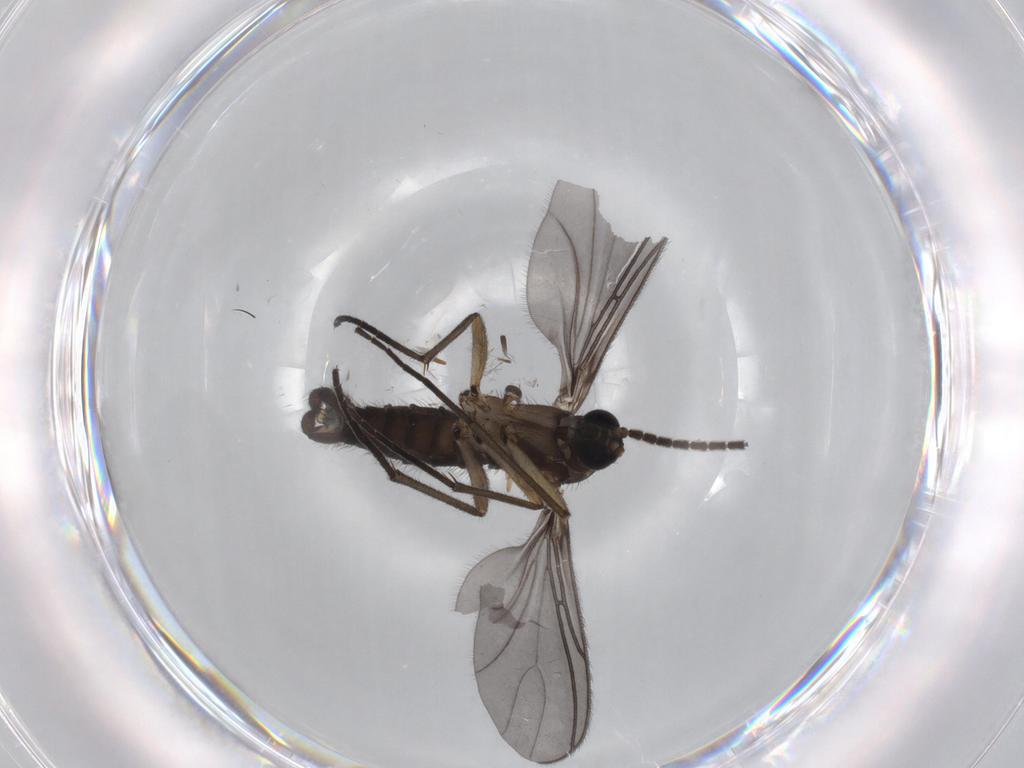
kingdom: Animalia
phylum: Arthropoda
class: Insecta
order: Diptera
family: Sciaridae
